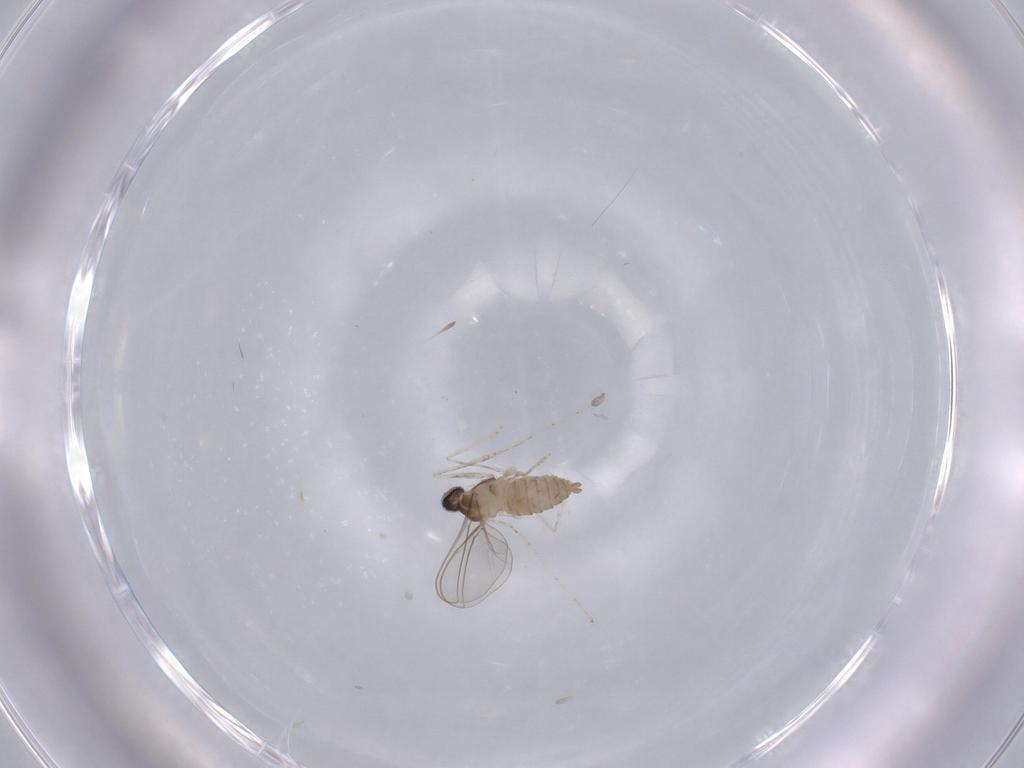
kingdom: Animalia
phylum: Arthropoda
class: Insecta
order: Diptera
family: Cecidomyiidae
